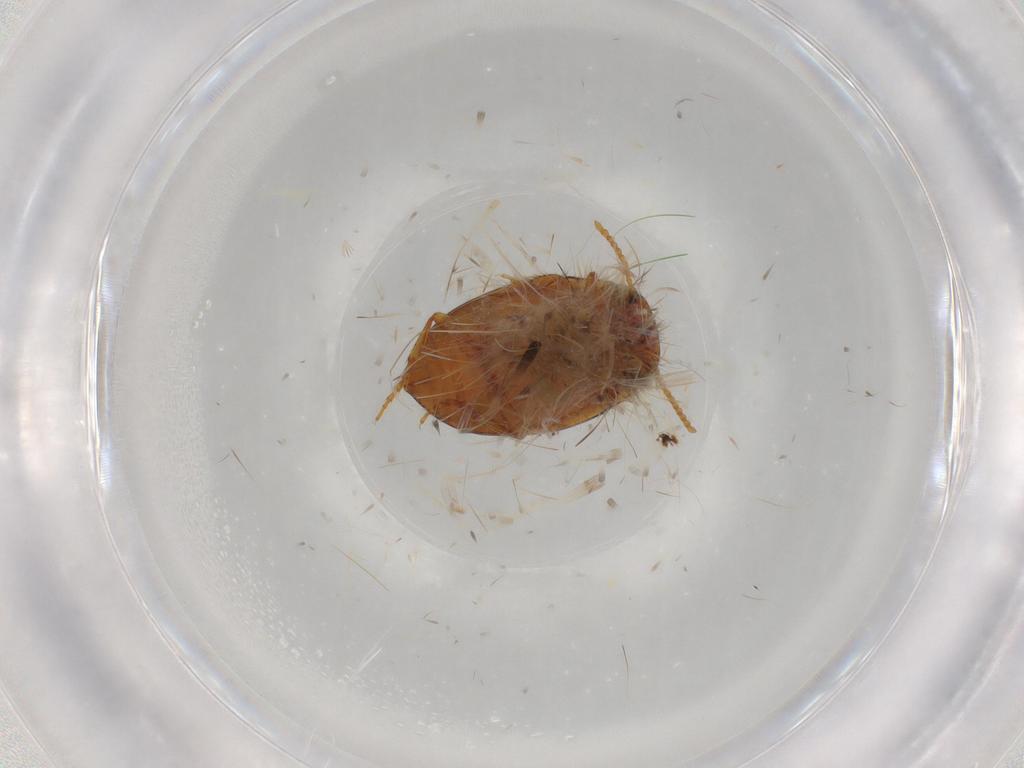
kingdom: Animalia
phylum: Arthropoda
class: Insecta
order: Coleoptera
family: Dytiscidae
